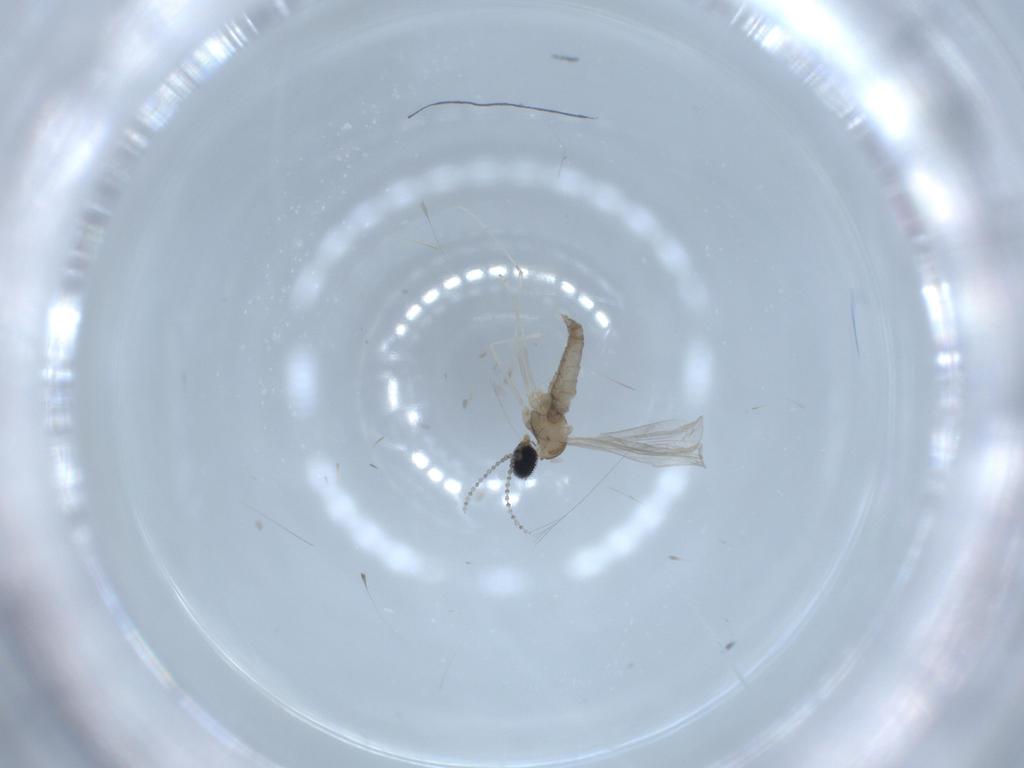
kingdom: Animalia
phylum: Arthropoda
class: Insecta
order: Diptera
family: Cecidomyiidae
